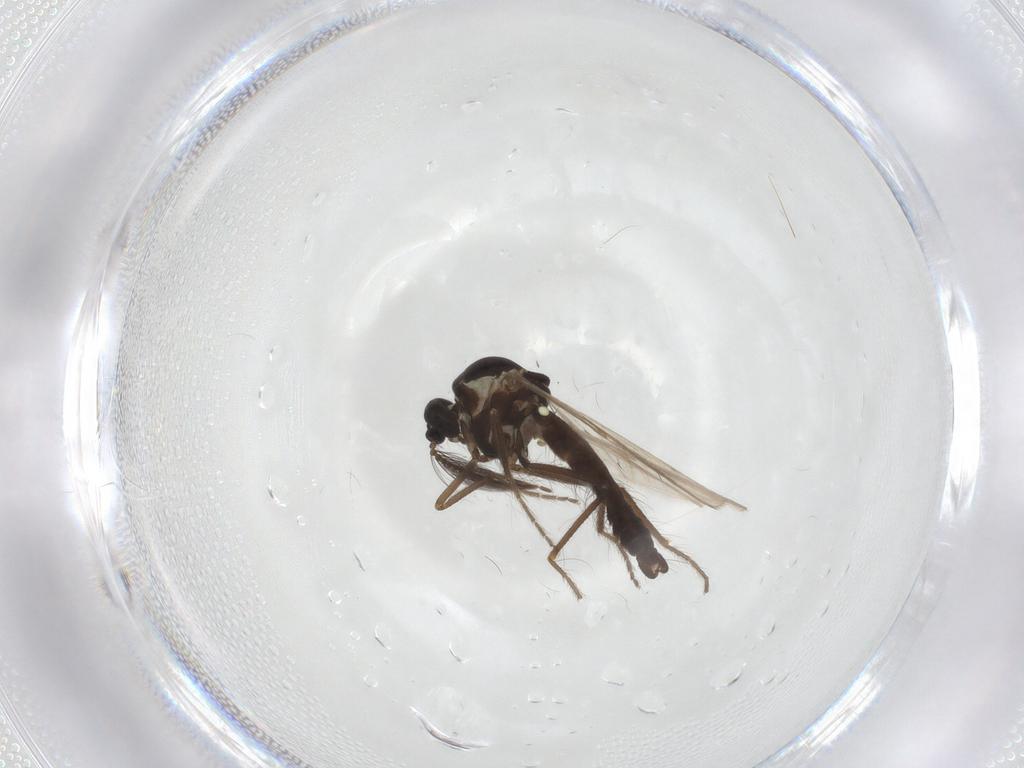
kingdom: Animalia
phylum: Arthropoda
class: Insecta
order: Diptera
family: Ceratopogonidae
